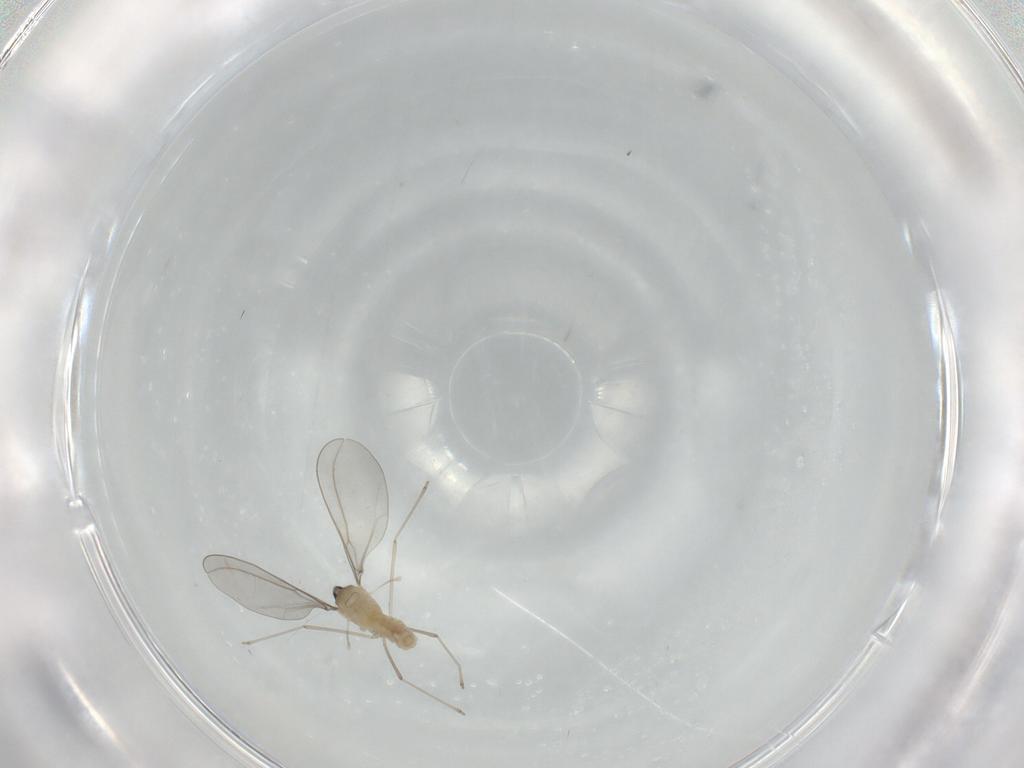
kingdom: Animalia
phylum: Arthropoda
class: Insecta
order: Diptera
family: Cecidomyiidae
